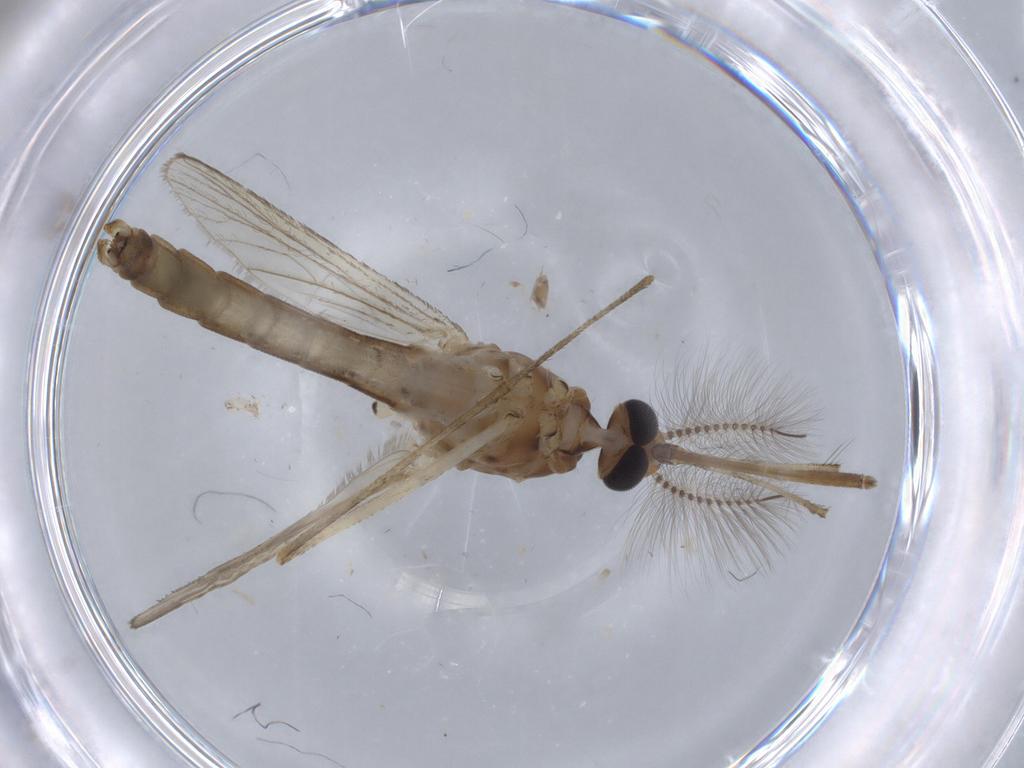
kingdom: Animalia
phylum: Arthropoda
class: Insecta
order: Diptera
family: Culicidae
